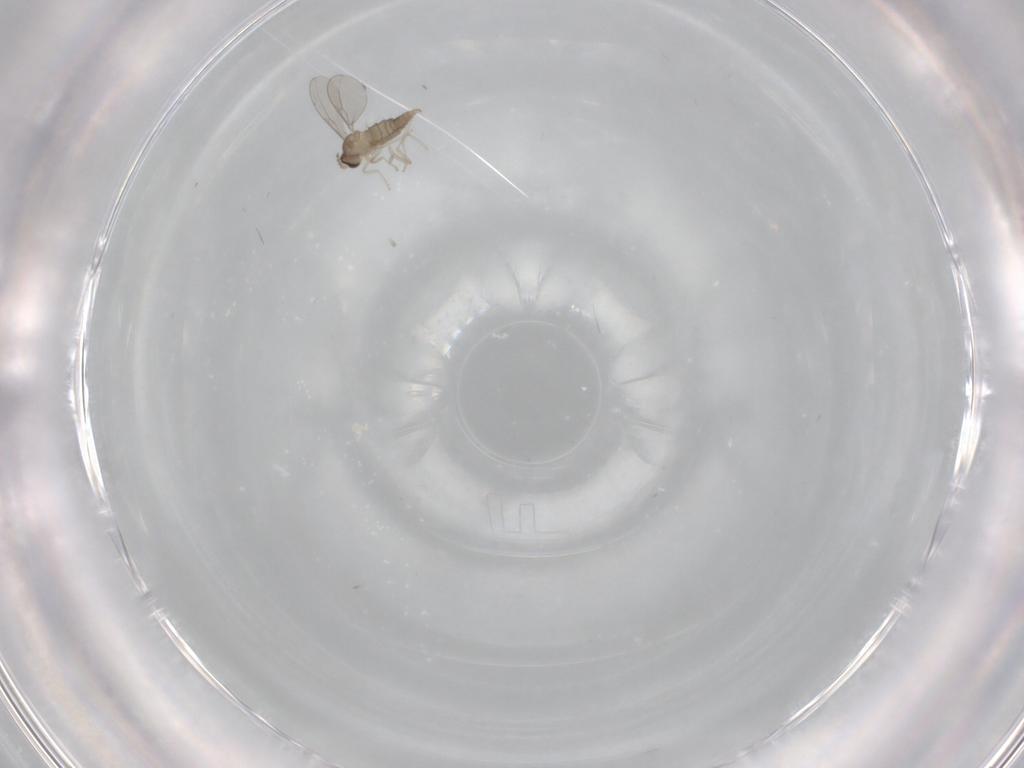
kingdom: Animalia
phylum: Arthropoda
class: Insecta
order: Diptera
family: Cecidomyiidae
